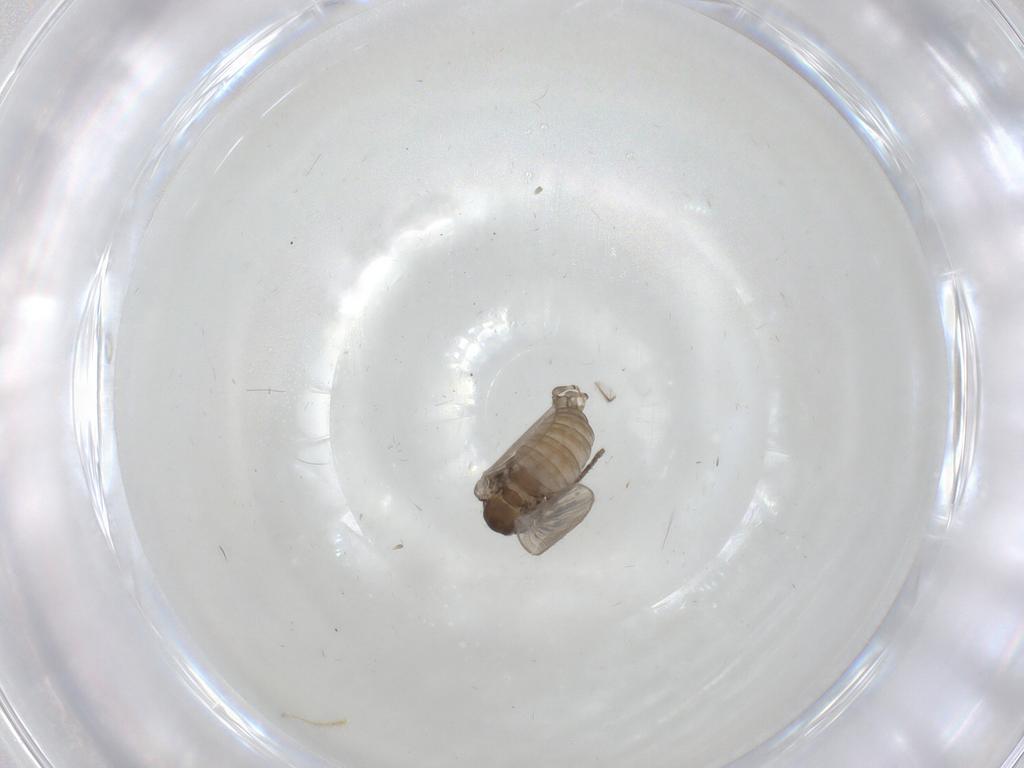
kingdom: Animalia
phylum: Arthropoda
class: Insecta
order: Diptera
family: Psychodidae
